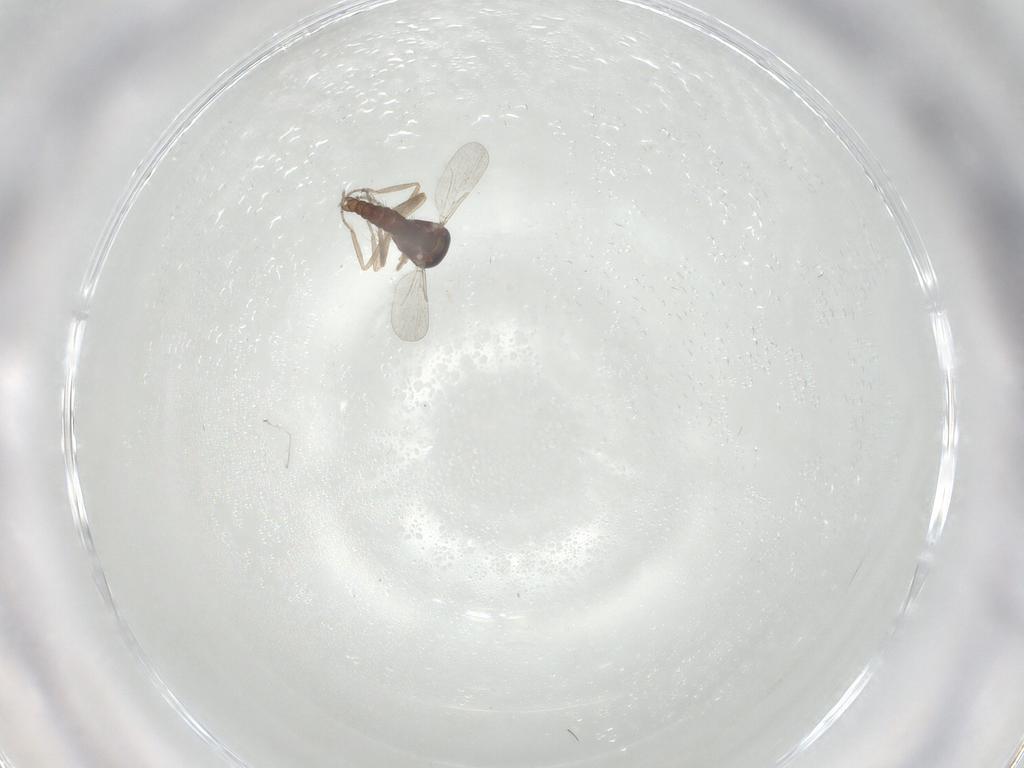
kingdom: Animalia
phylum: Arthropoda
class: Insecta
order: Diptera
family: Ceratopogonidae
